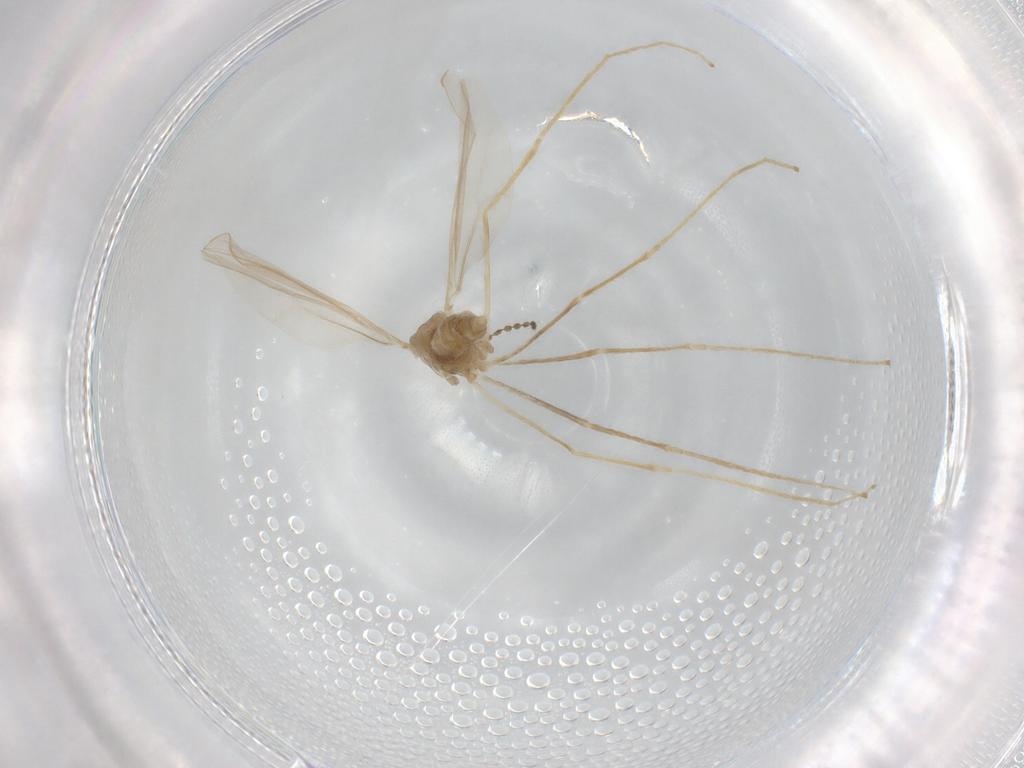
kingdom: Animalia
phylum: Arthropoda
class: Insecta
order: Diptera
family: Cecidomyiidae
